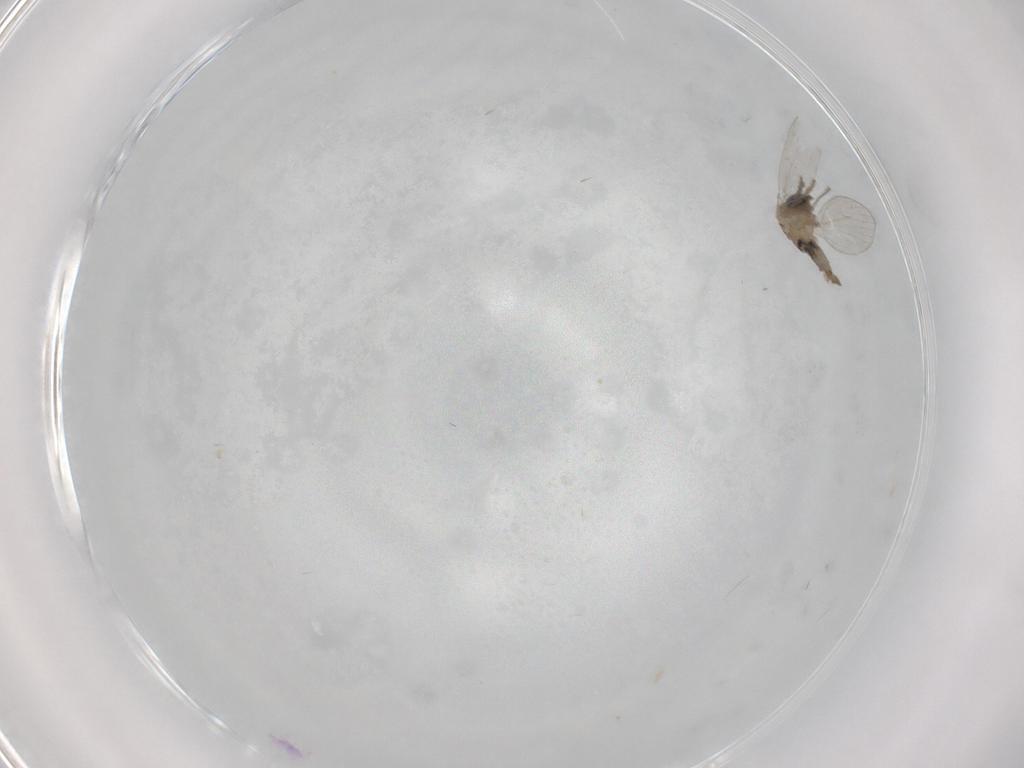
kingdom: Animalia
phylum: Arthropoda
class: Insecta
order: Diptera
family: Psychodidae
